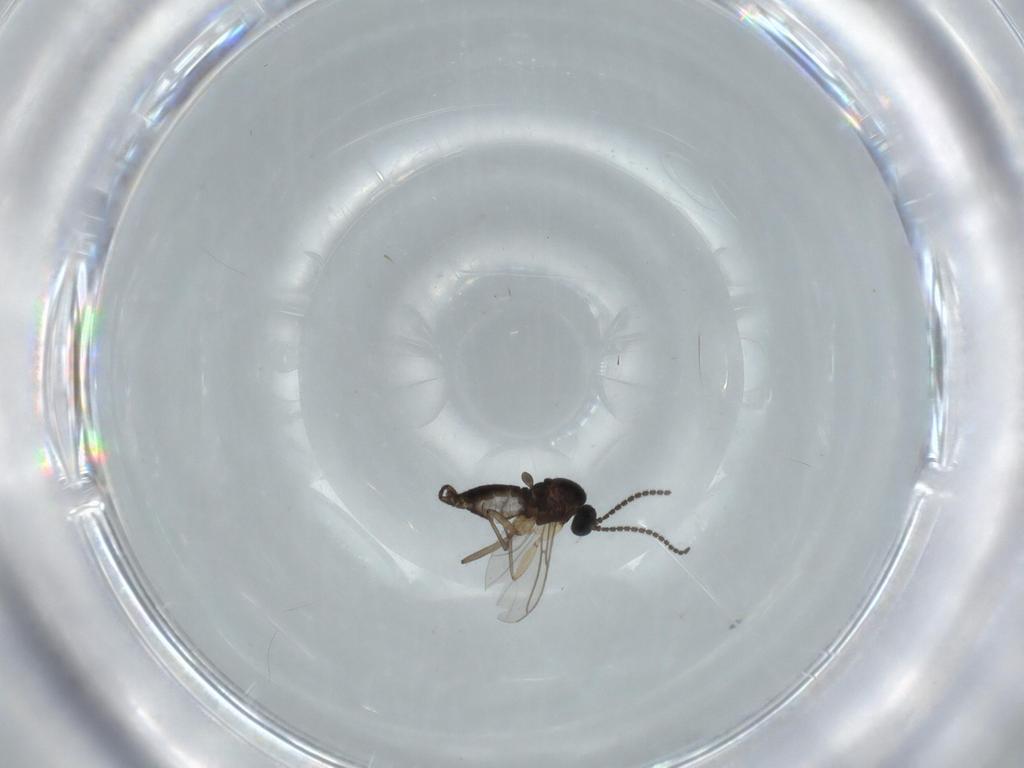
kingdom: Animalia
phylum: Arthropoda
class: Insecta
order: Diptera
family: Sciaridae
